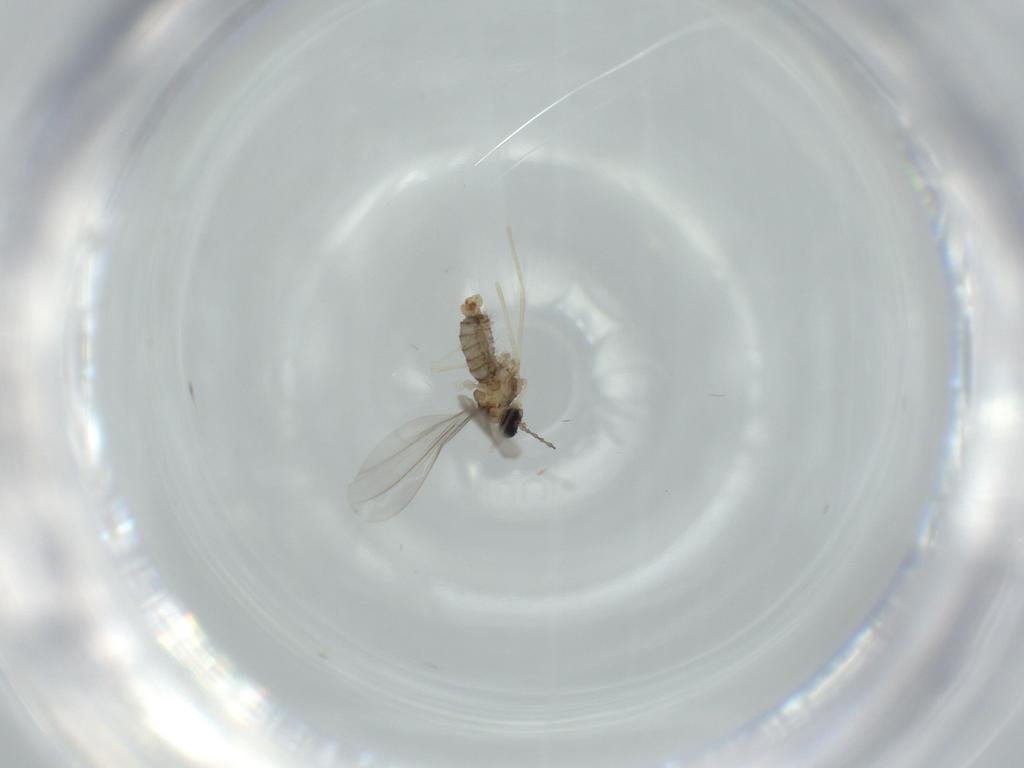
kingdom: Animalia
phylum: Arthropoda
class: Insecta
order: Diptera
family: Cecidomyiidae
